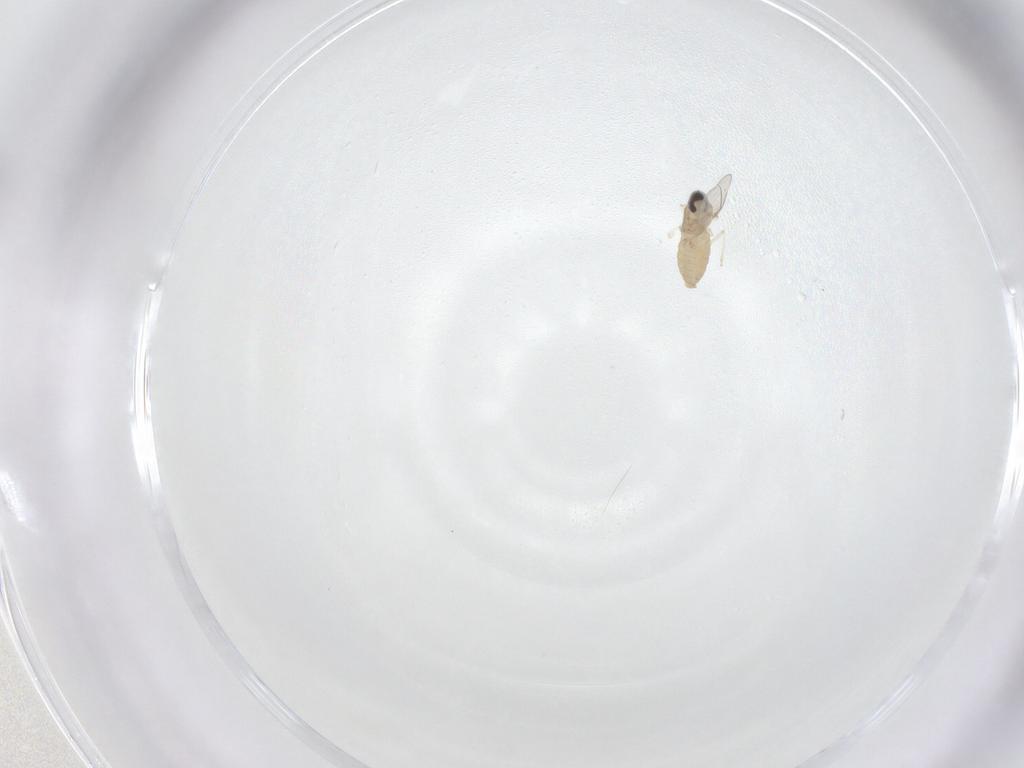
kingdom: Animalia
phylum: Arthropoda
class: Insecta
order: Diptera
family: Cecidomyiidae
